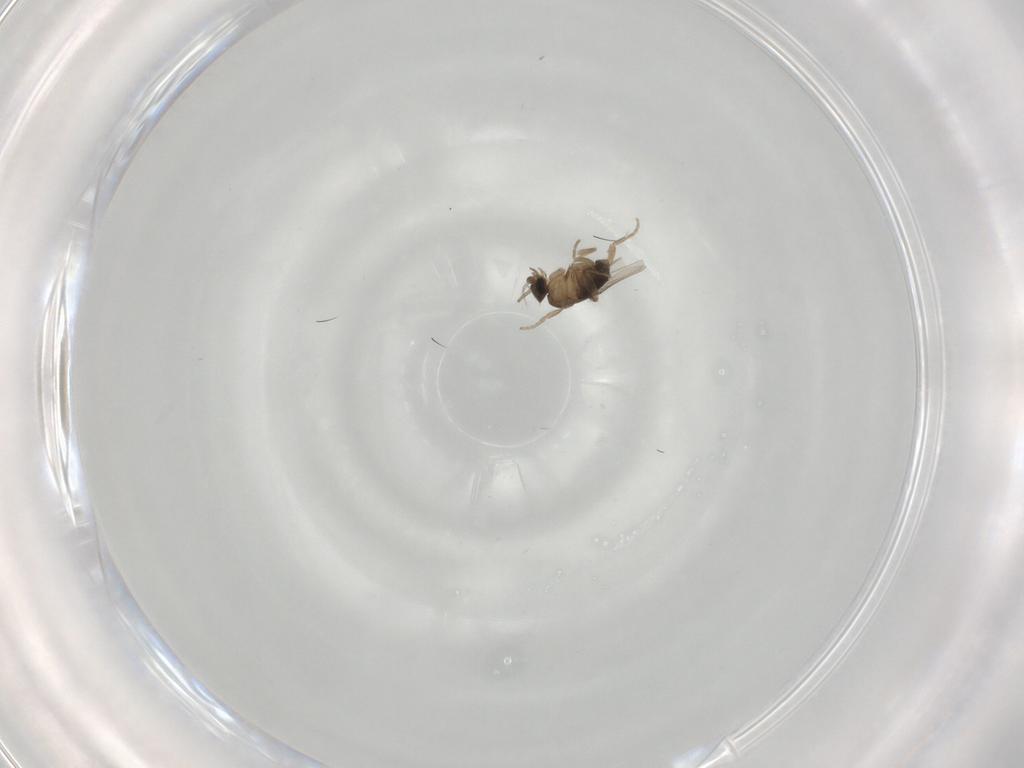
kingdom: Animalia
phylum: Arthropoda
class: Insecta
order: Diptera
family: Phoridae
